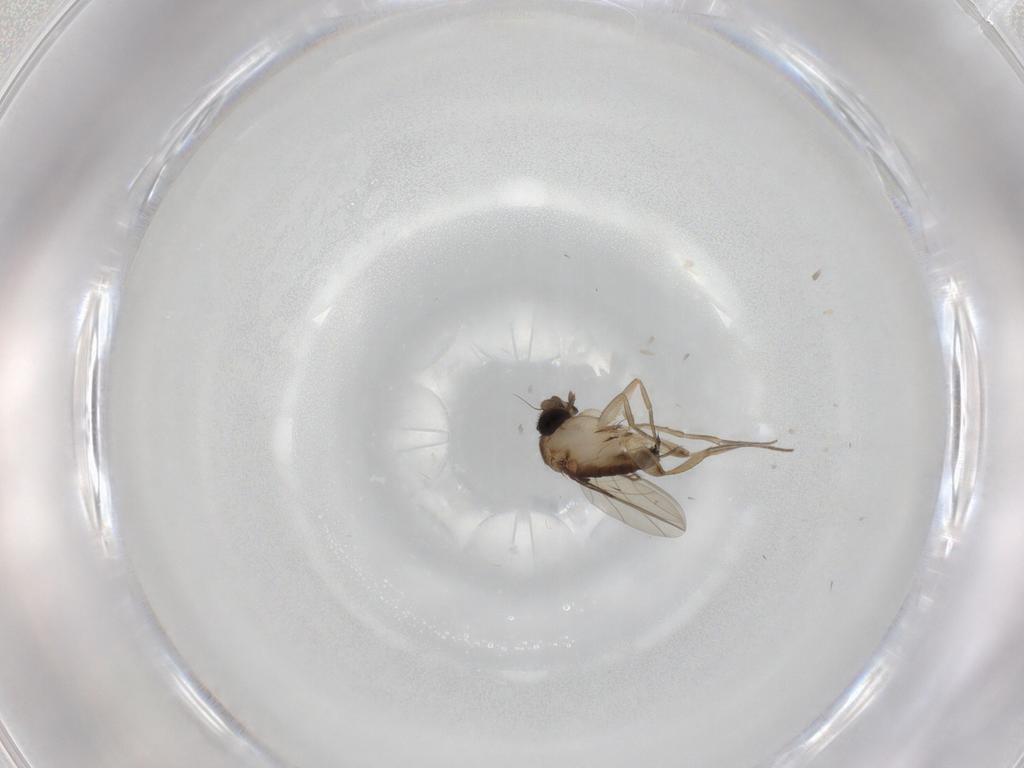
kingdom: Animalia
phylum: Arthropoda
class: Insecta
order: Diptera
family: Phoridae
